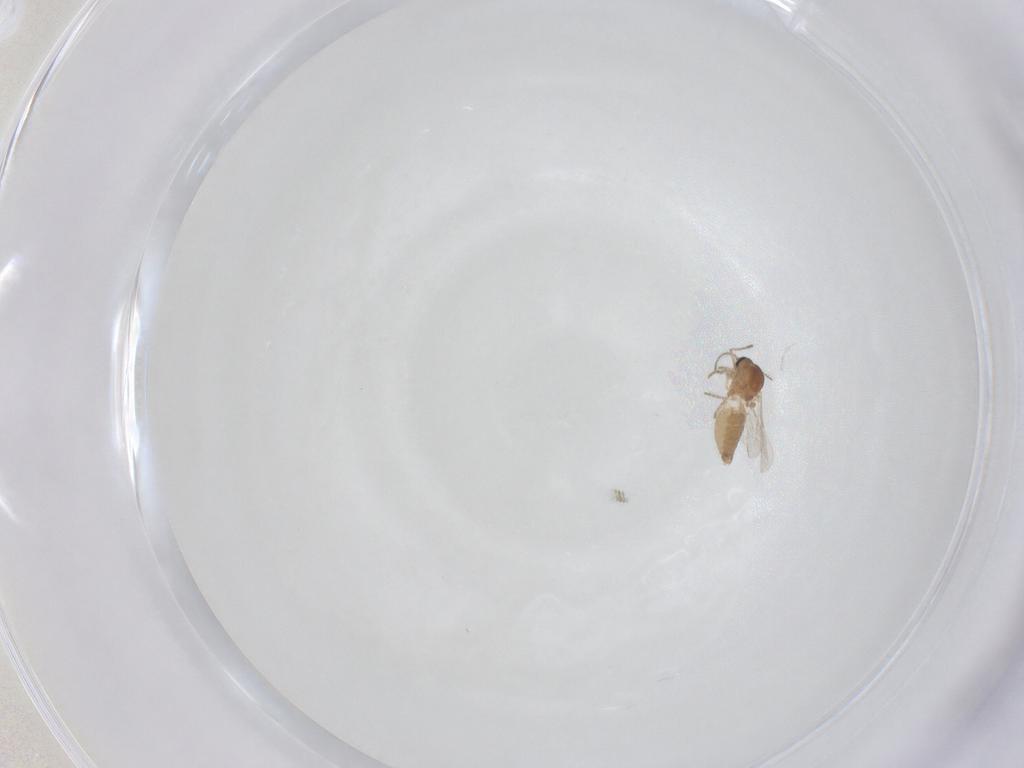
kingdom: Animalia
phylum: Arthropoda
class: Insecta
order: Diptera
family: Ceratopogonidae
